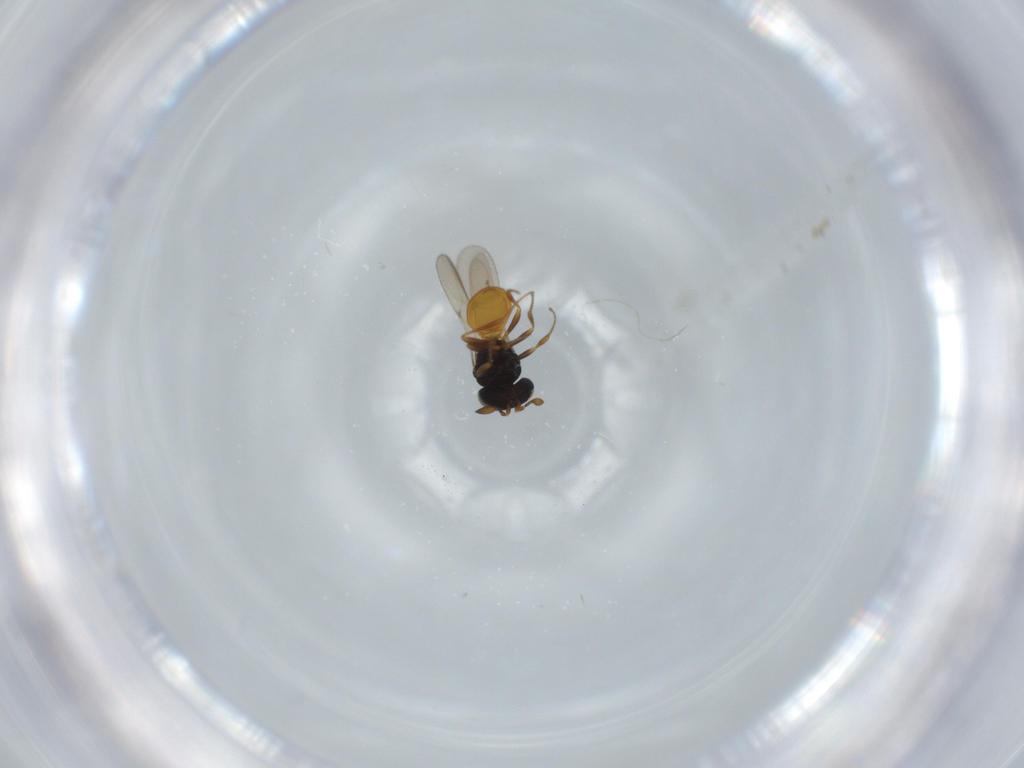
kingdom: Animalia
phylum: Arthropoda
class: Insecta
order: Hymenoptera
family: Scelionidae
